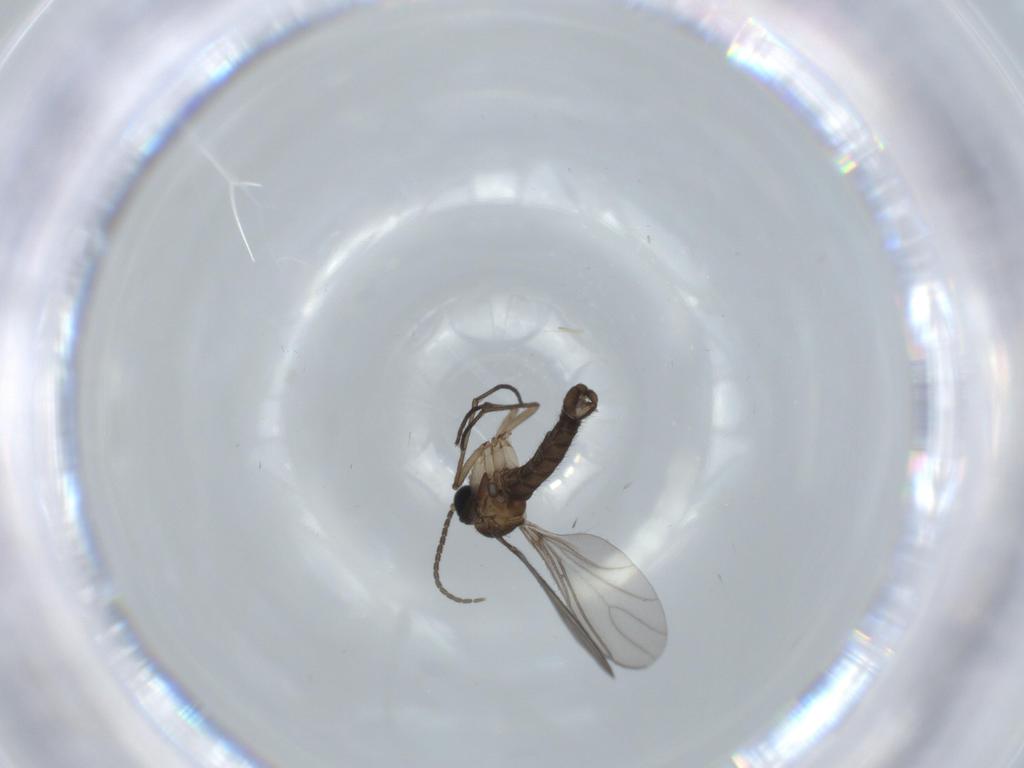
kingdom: Animalia
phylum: Arthropoda
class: Insecta
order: Diptera
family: Sciaridae
